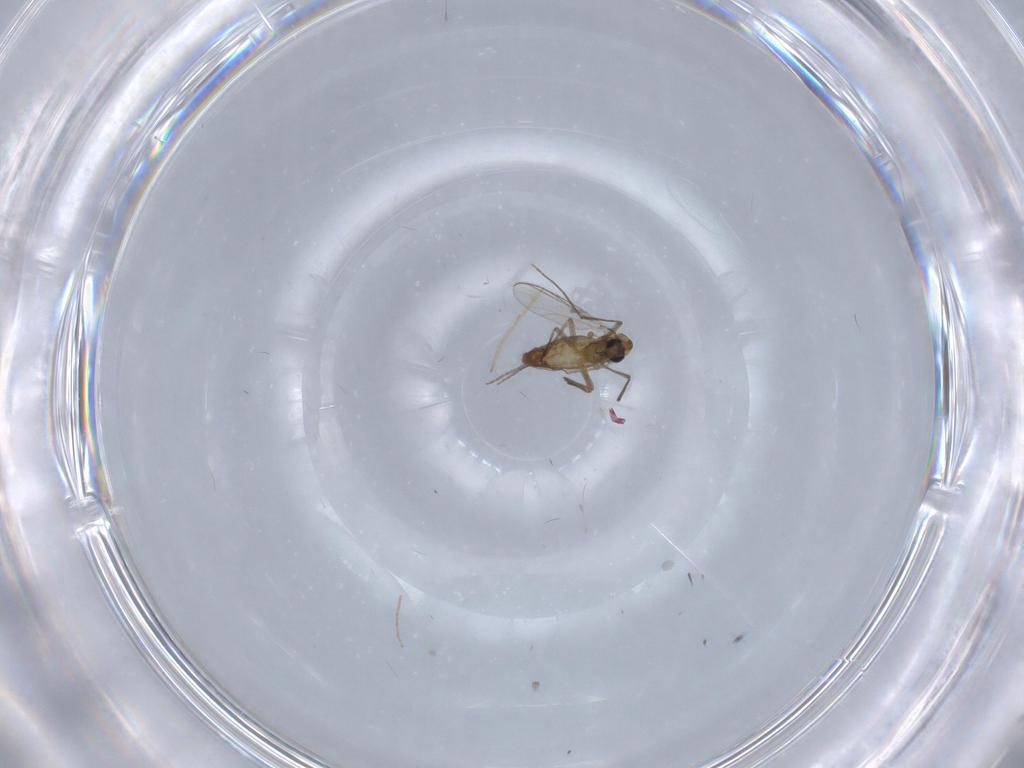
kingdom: Animalia
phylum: Arthropoda
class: Insecta
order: Diptera
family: Chironomidae
